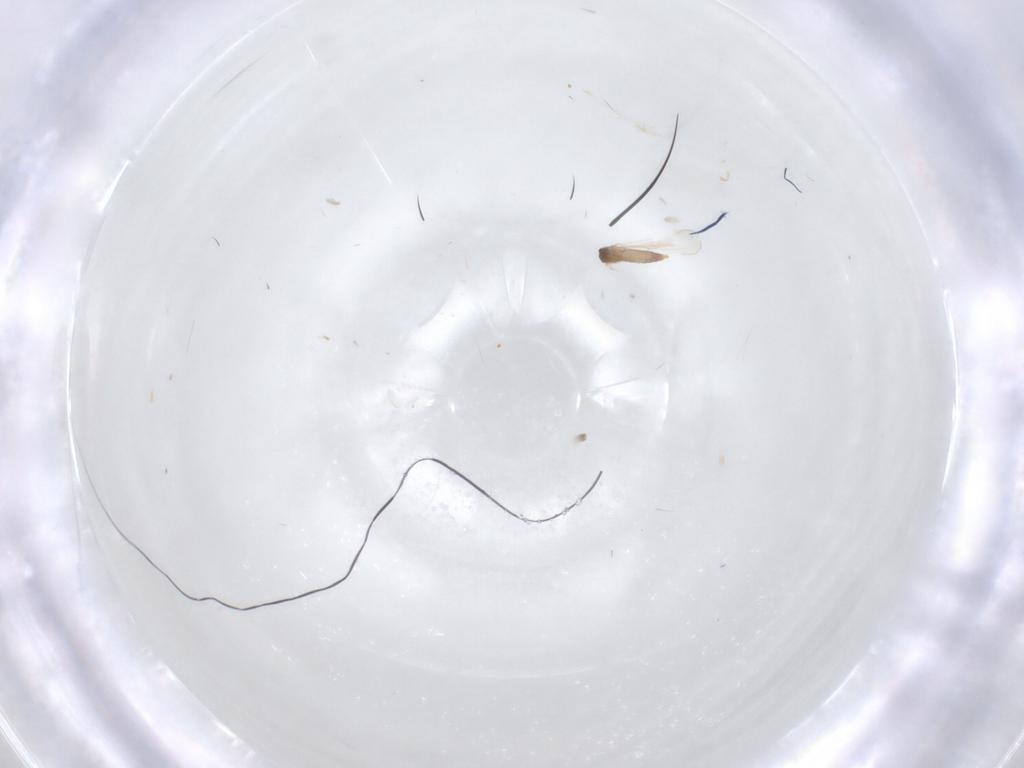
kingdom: Animalia
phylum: Arthropoda
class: Insecta
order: Diptera
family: Cecidomyiidae
